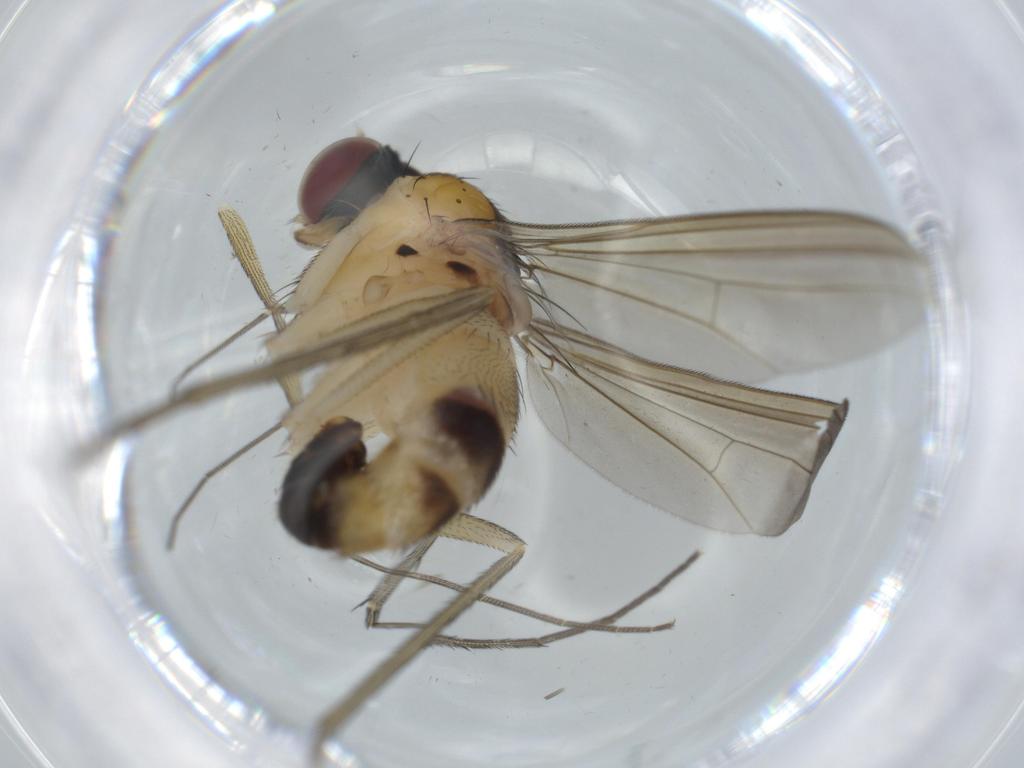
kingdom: Animalia
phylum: Arthropoda
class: Insecta
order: Diptera
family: Dolichopodidae
